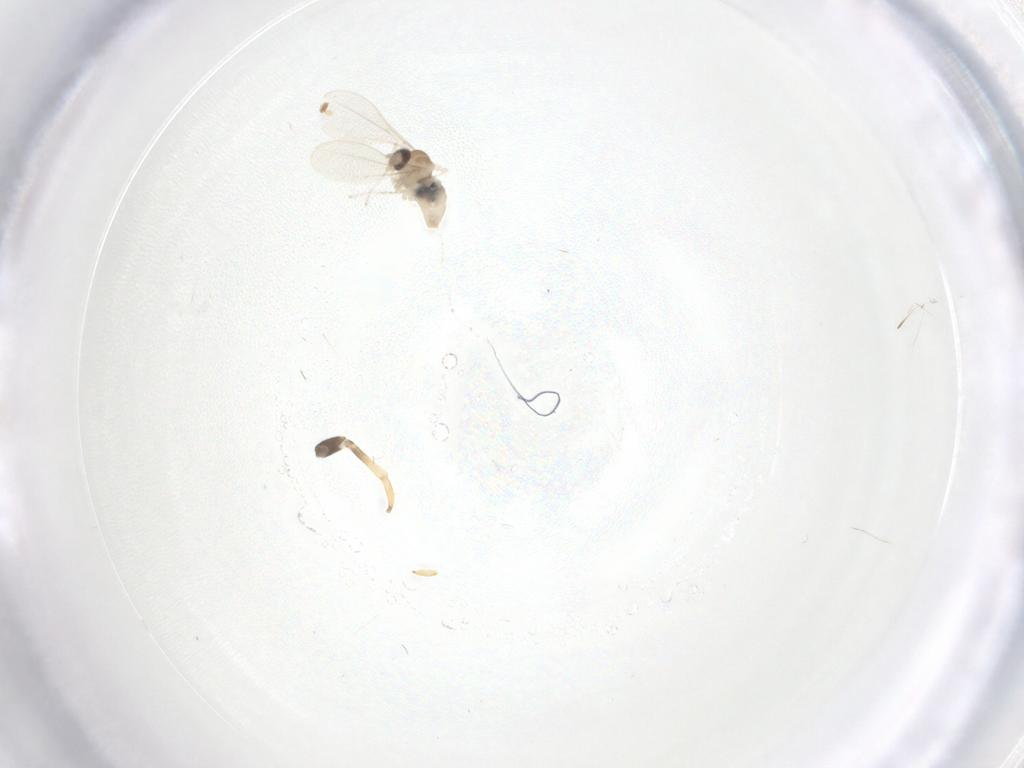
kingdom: Animalia
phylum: Arthropoda
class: Insecta
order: Diptera
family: Cecidomyiidae
